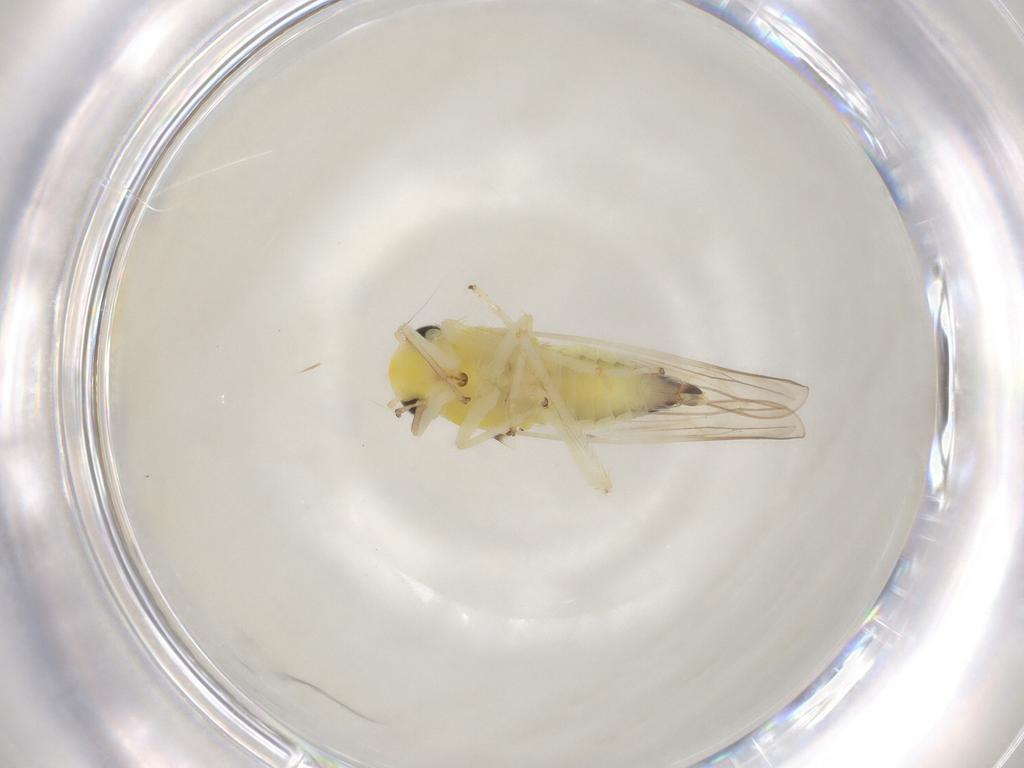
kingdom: Animalia
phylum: Arthropoda
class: Insecta
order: Hemiptera
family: Cicadellidae
